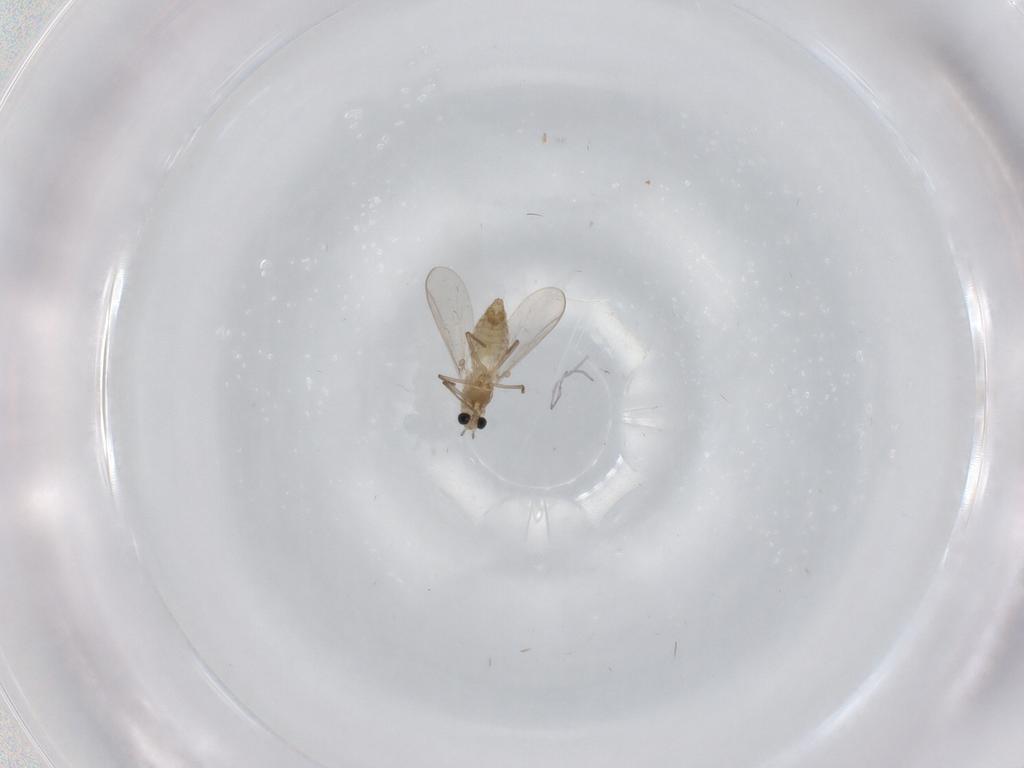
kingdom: Animalia
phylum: Arthropoda
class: Insecta
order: Diptera
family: Chironomidae
